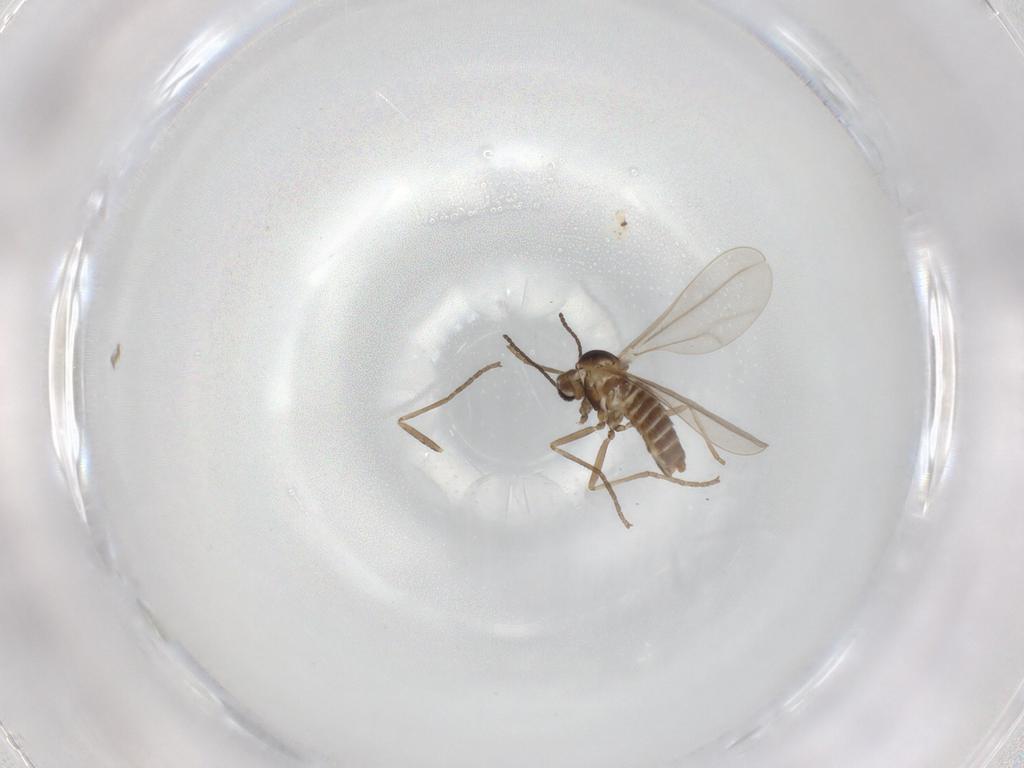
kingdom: Animalia
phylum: Arthropoda
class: Insecta
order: Diptera
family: Cecidomyiidae
